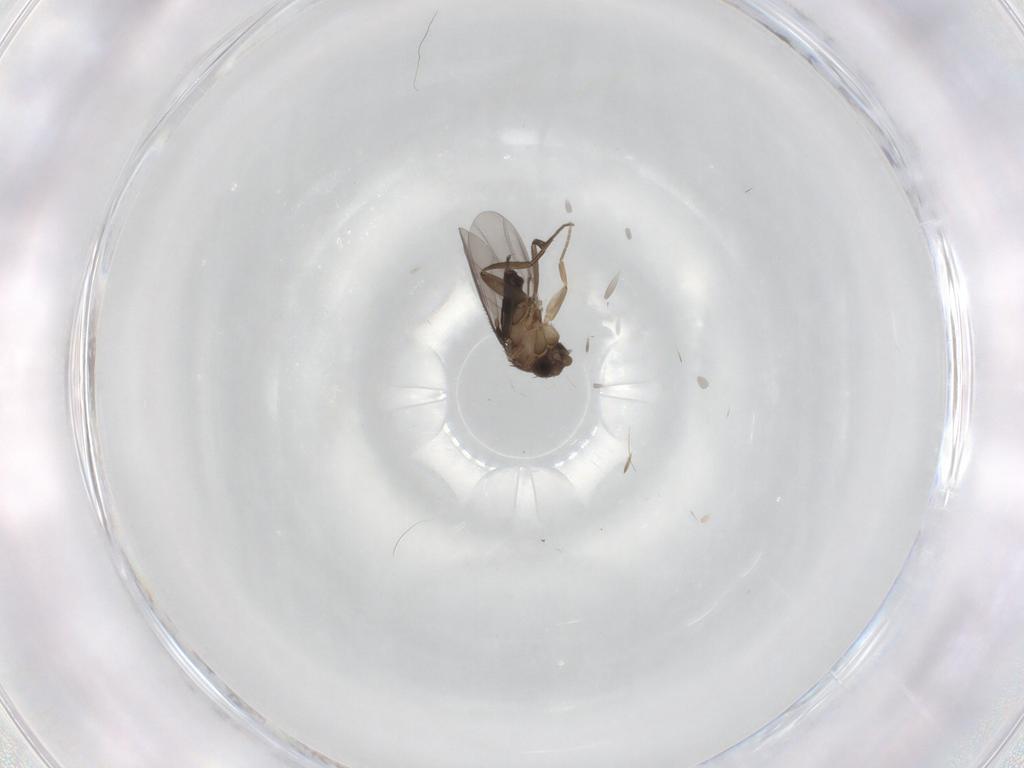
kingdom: Animalia
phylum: Arthropoda
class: Insecta
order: Diptera
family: Phoridae
